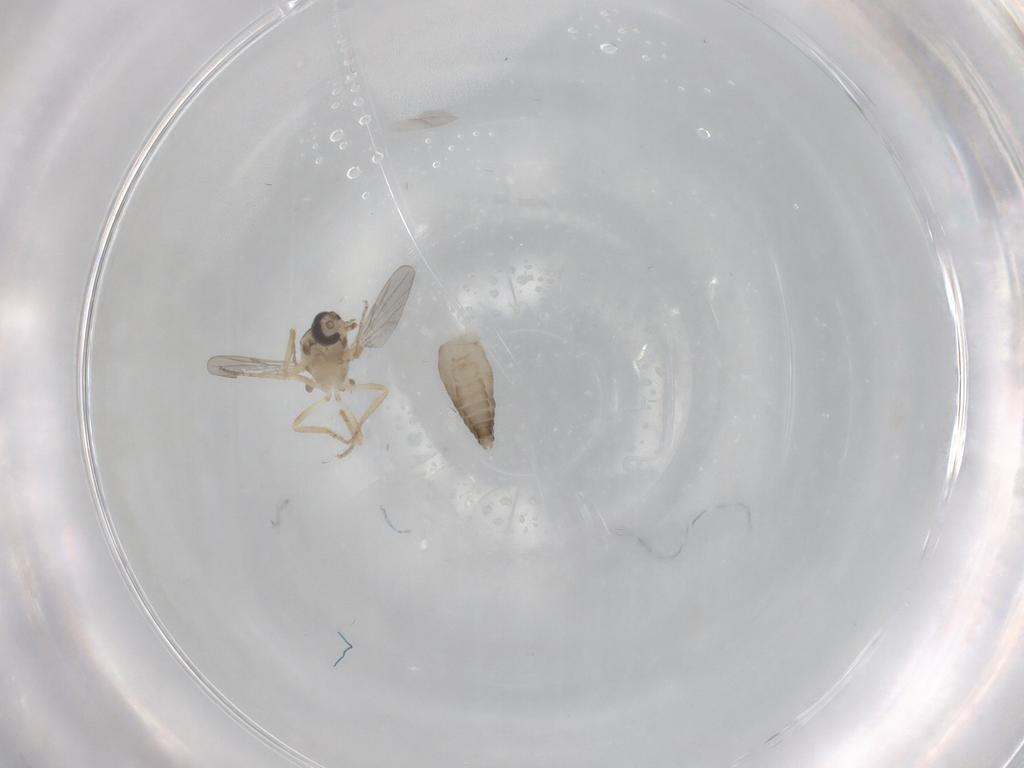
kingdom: Animalia
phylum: Arthropoda
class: Insecta
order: Diptera
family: Ceratopogonidae
